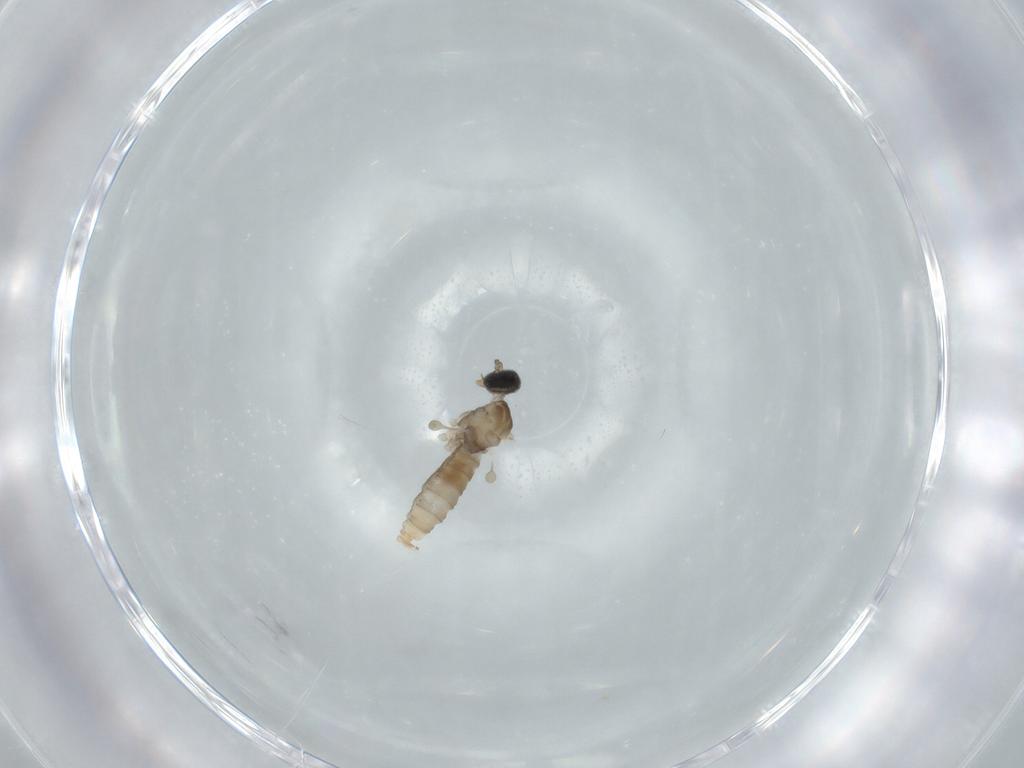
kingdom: Animalia
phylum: Arthropoda
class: Insecta
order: Diptera
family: Cecidomyiidae
